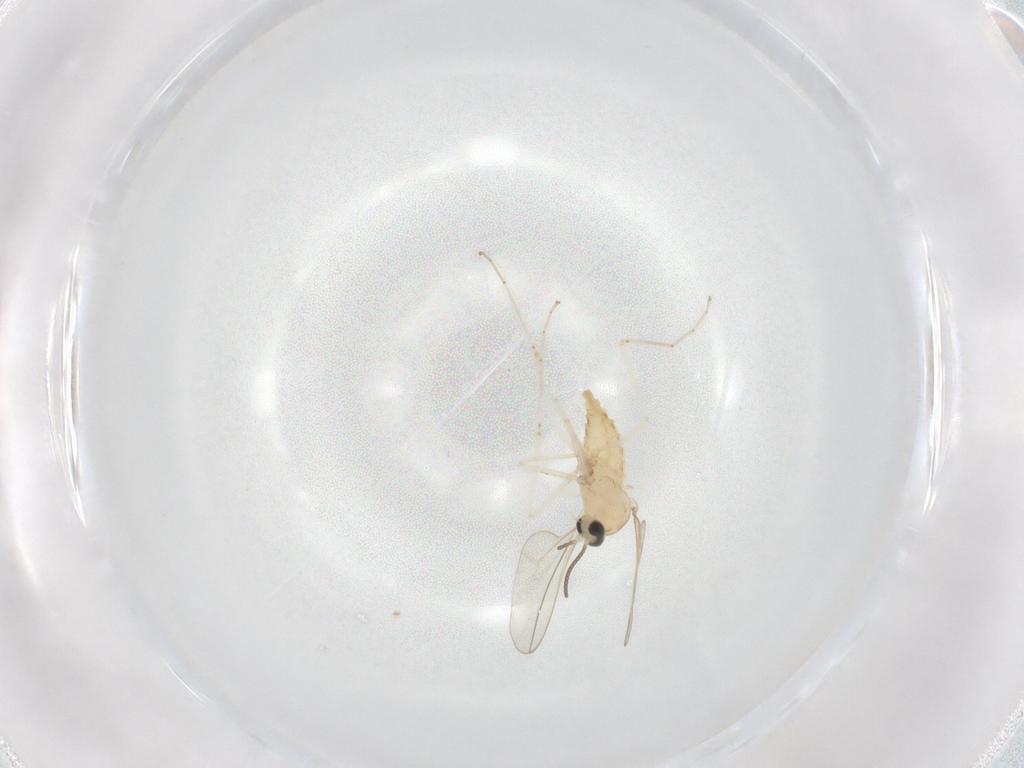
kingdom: Animalia
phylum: Arthropoda
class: Insecta
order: Diptera
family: Cecidomyiidae
